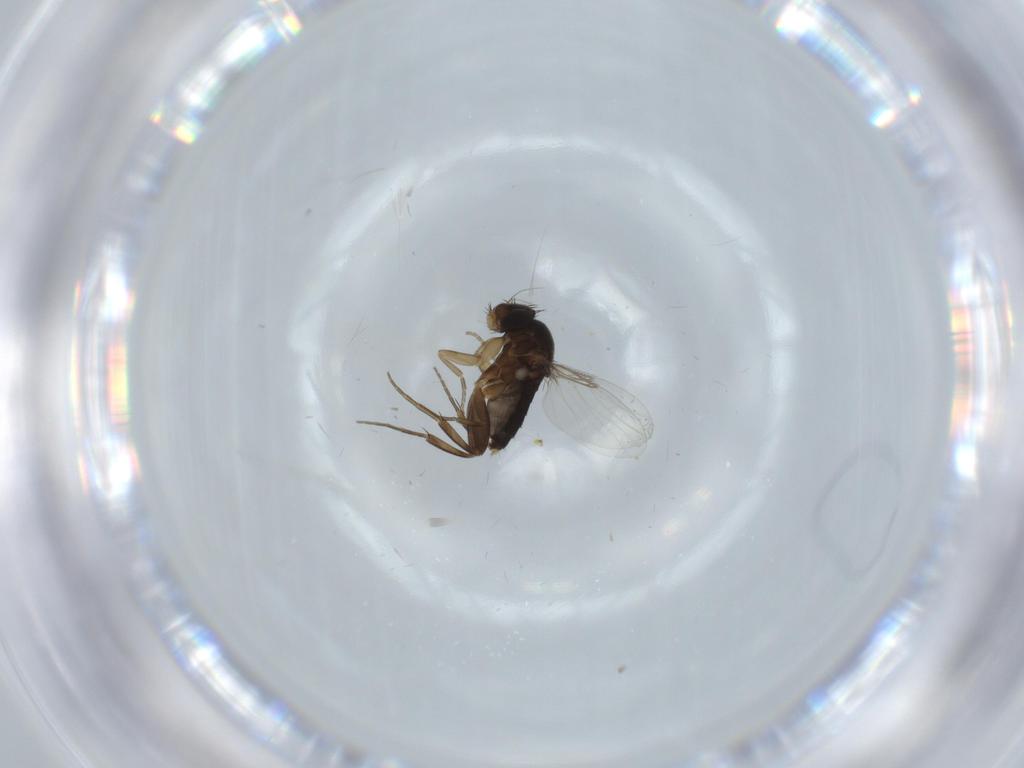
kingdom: Animalia
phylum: Arthropoda
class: Insecta
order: Diptera
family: Phoridae
